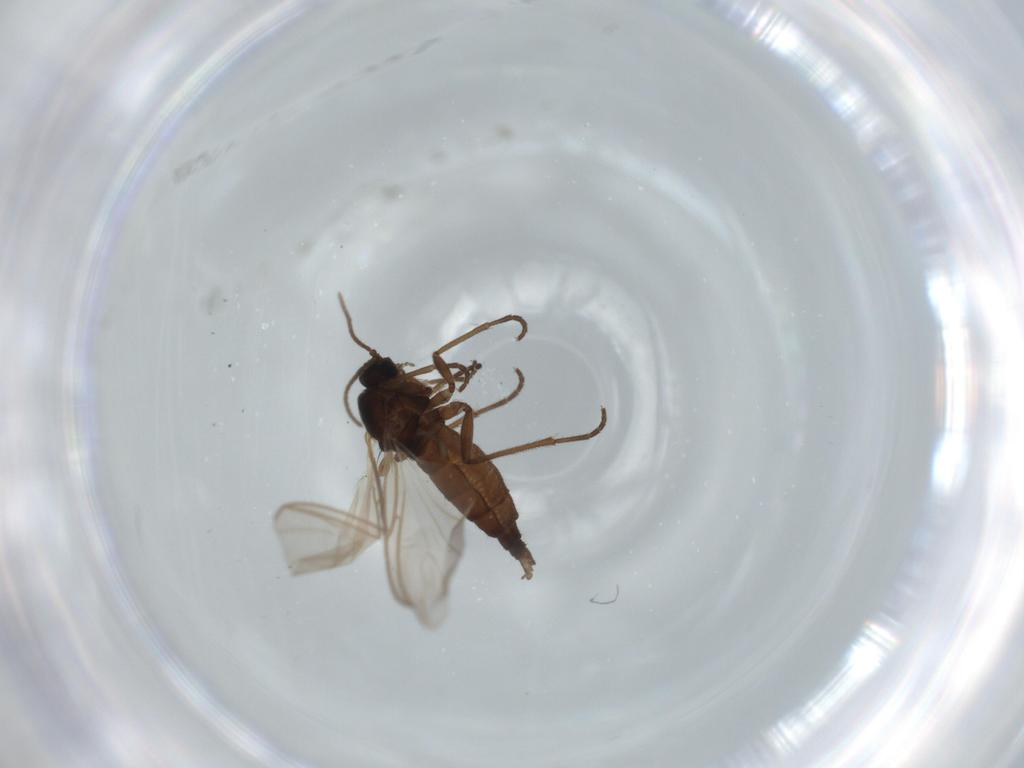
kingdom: Animalia
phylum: Arthropoda
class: Insecta
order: Diptera
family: Sciaridae
